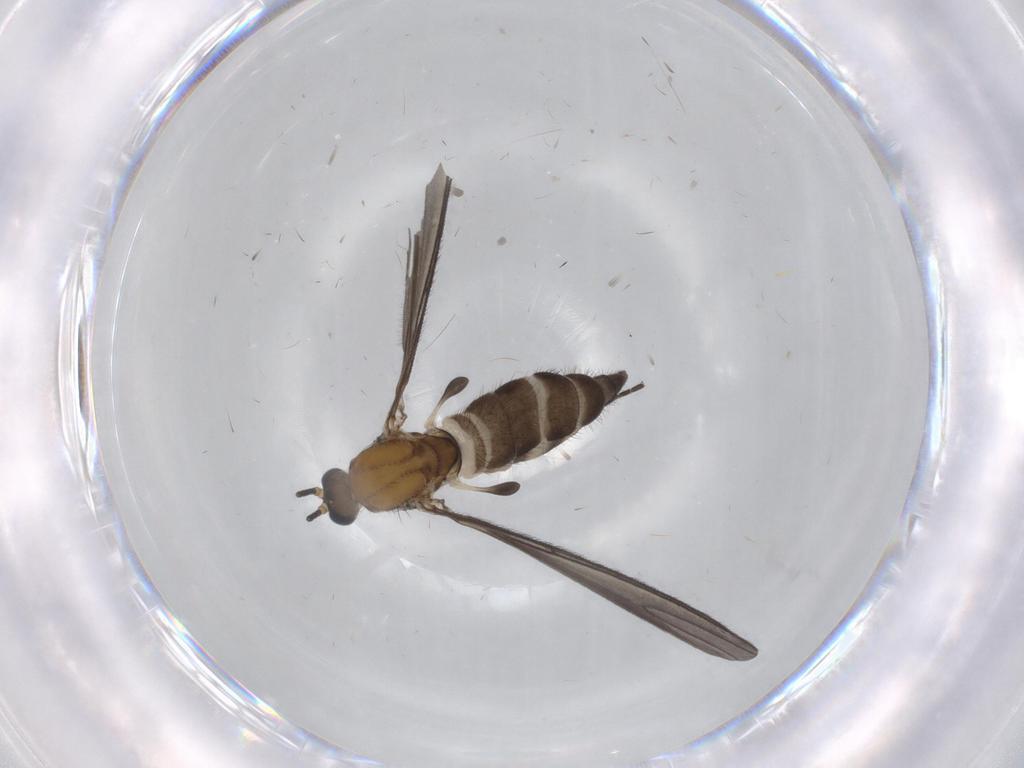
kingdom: Animalia
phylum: Arthropoda
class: Insecta
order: Diptera
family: Sciaridae
